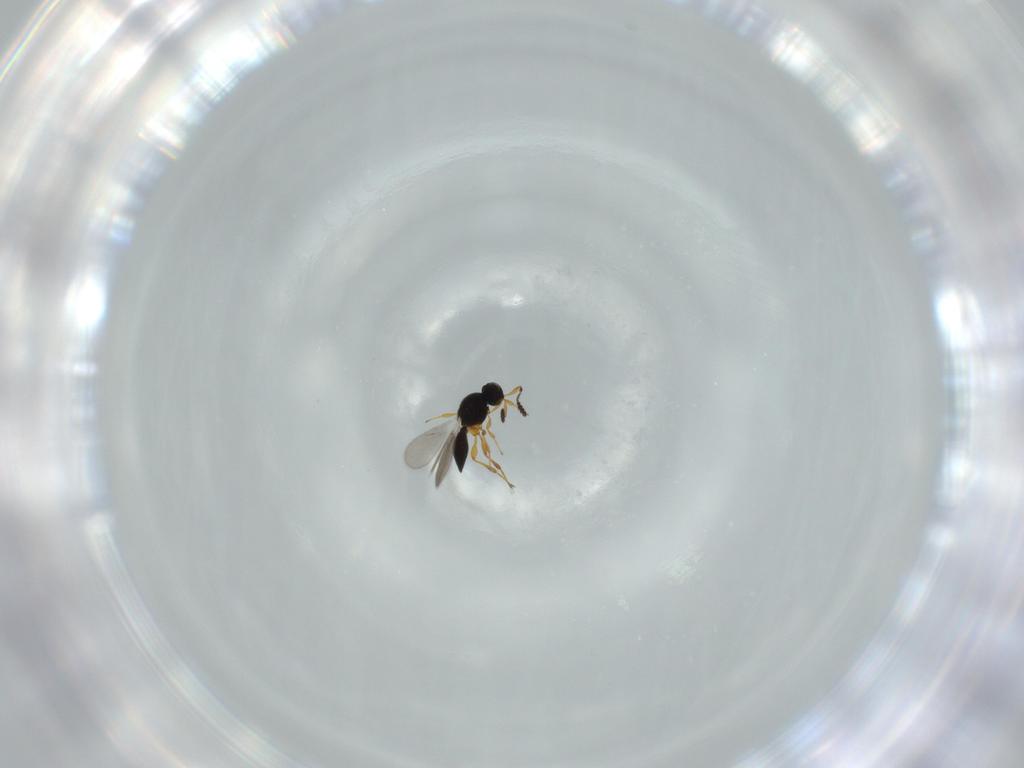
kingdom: Animalia
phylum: Arthropoda
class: Insecta
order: Hymenoptera
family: Platygastridae
